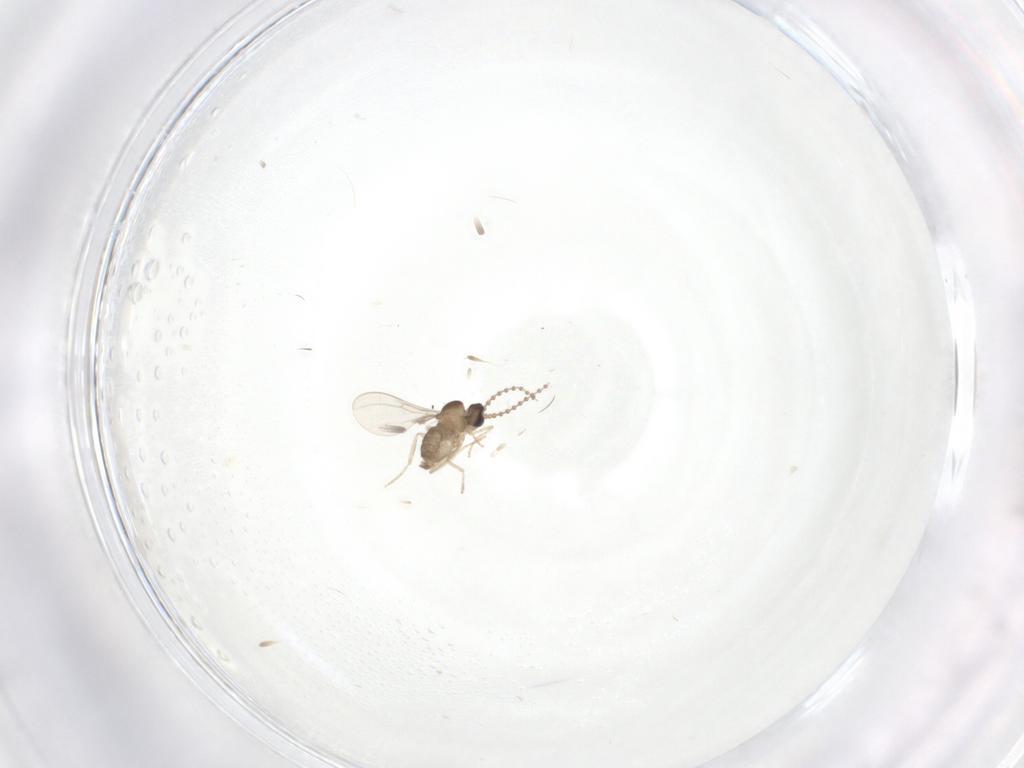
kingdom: Animalia
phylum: Arthropoda
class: Insecta
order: Diptera
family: Cecidomyiidae
